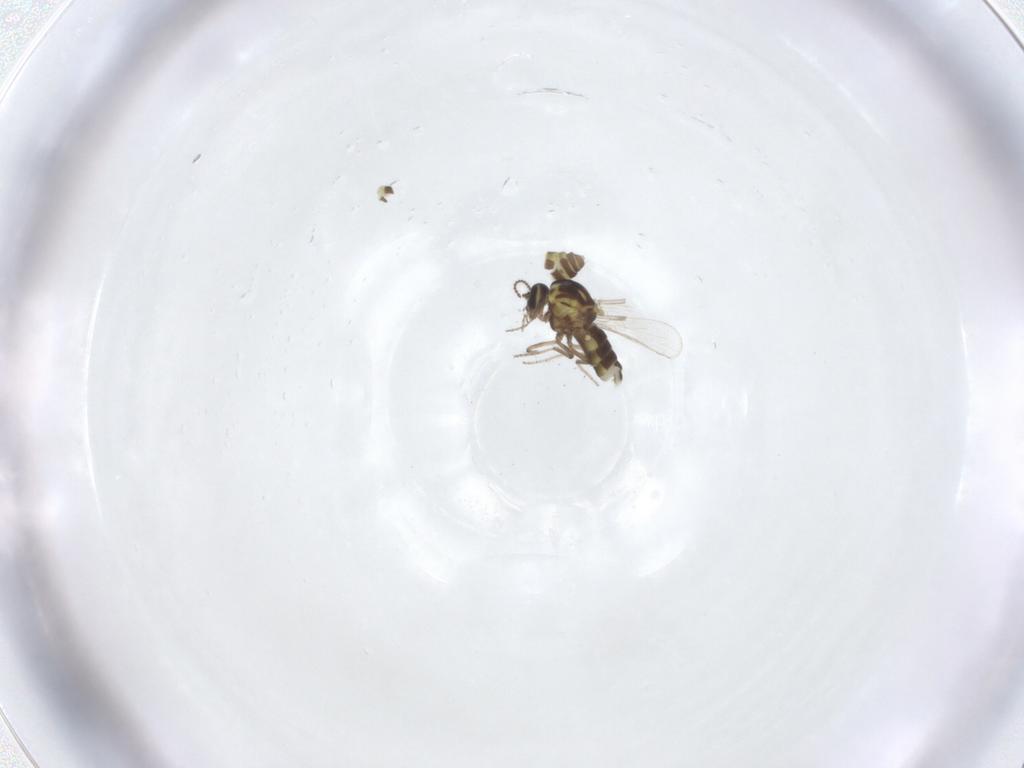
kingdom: Animalia
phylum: Arthropoda
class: Insecta
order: Diptera
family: Ceratopogonidae
